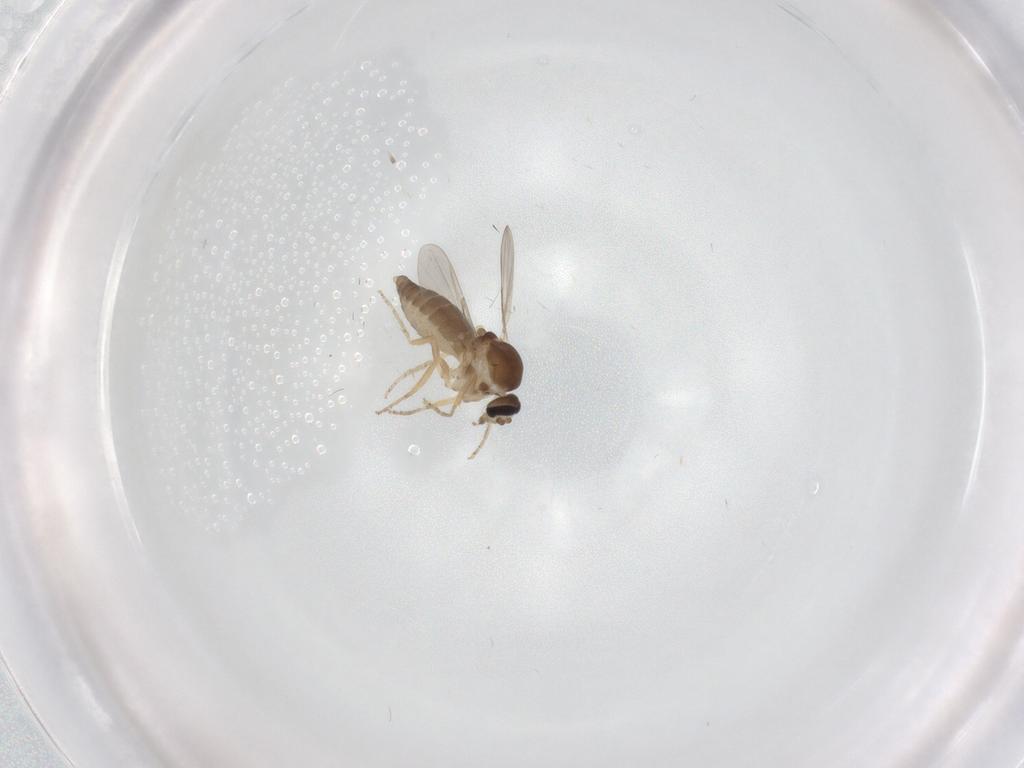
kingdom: Animalia
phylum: Arthropoda
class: Insecta
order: Diptera
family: Ceratopogonidae
